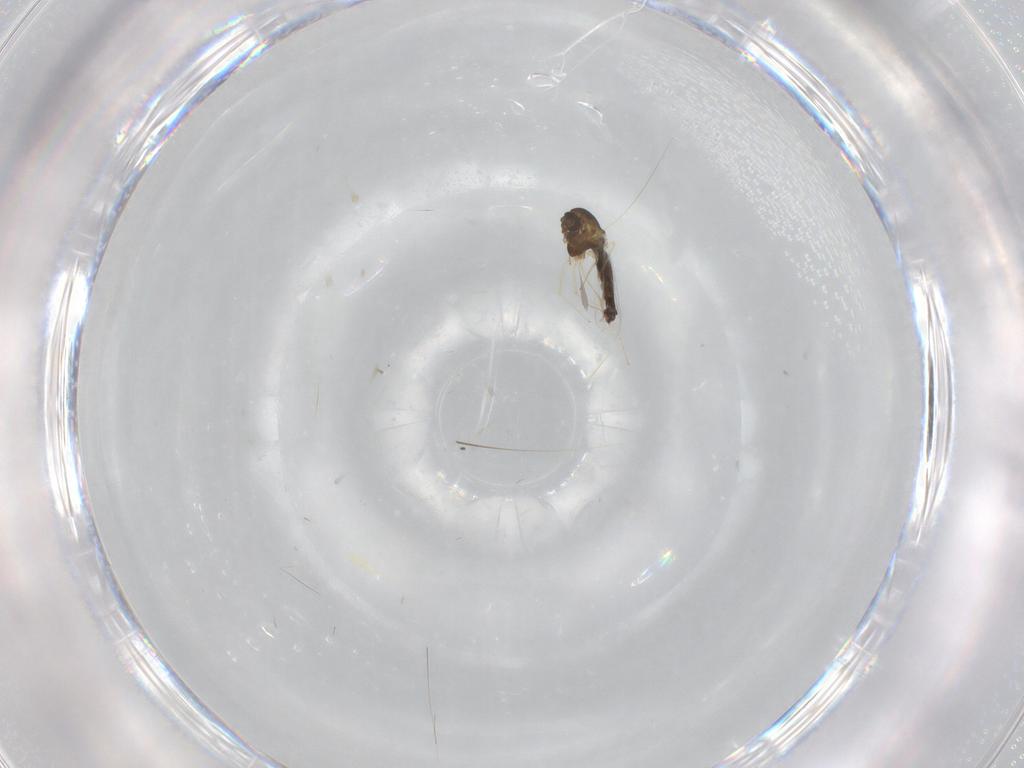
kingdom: Animalia
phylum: Arthropoda
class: Insecta
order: Diptera
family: Chironomidae
